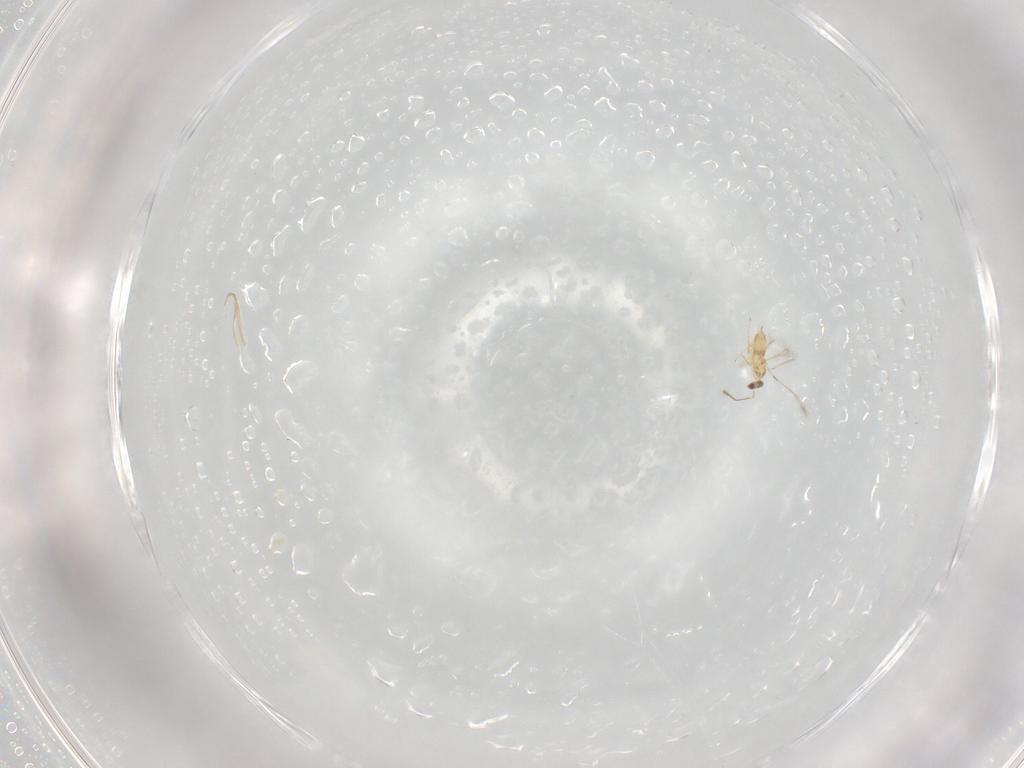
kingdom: Animalia
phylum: Arthropoda
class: Insecta
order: Hymenoptera
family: Mymaridae
